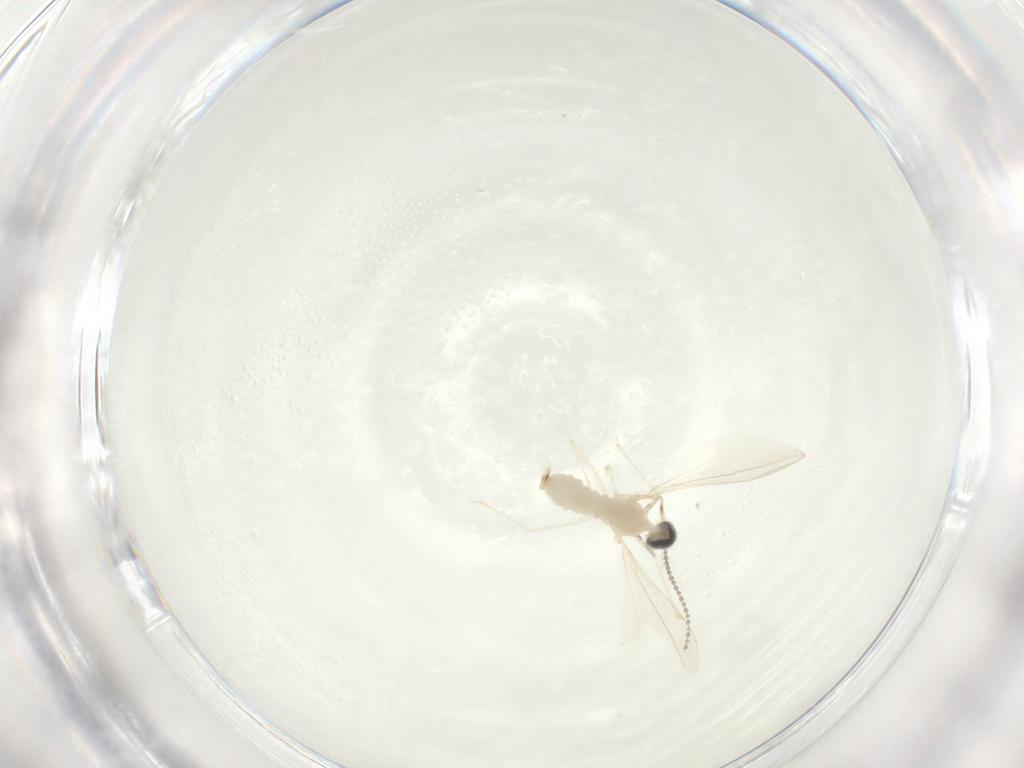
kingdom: Animalia
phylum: Arthropoda
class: Insecta
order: Diptera
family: Cecidomyiidae
